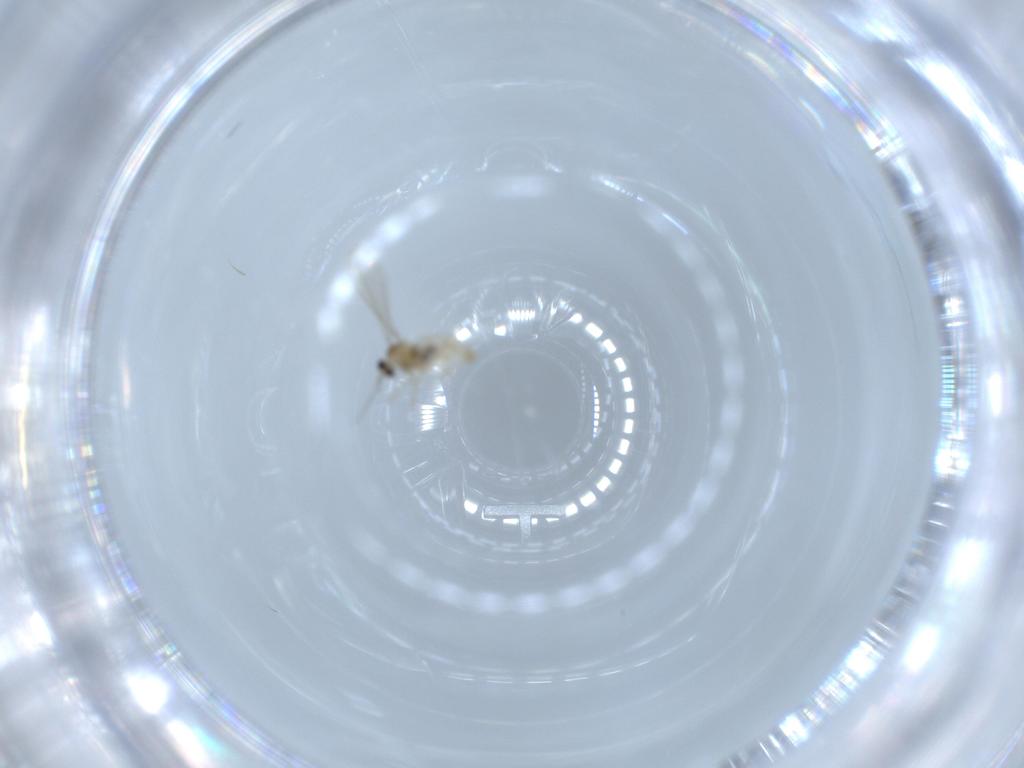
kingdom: Animalia
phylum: Arthropoda
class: Insecta
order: Diptera
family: Cecidomyiidae
